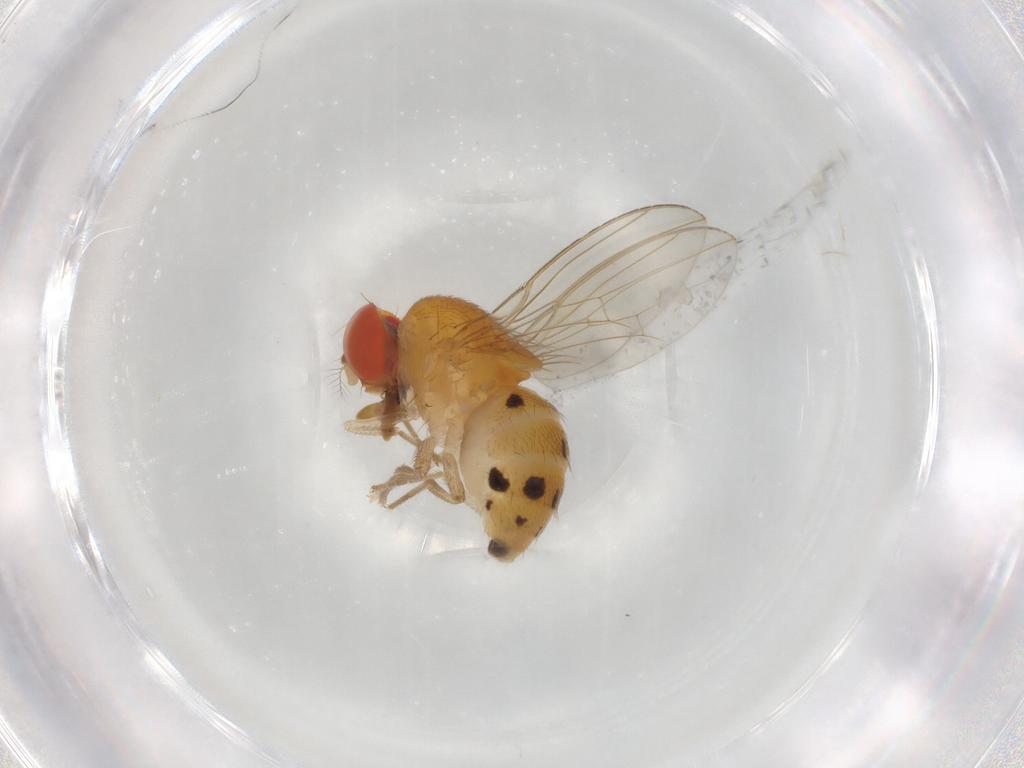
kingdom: Animalia
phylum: Arthropoda
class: Insecta
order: Diptera
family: Drosophilidae
